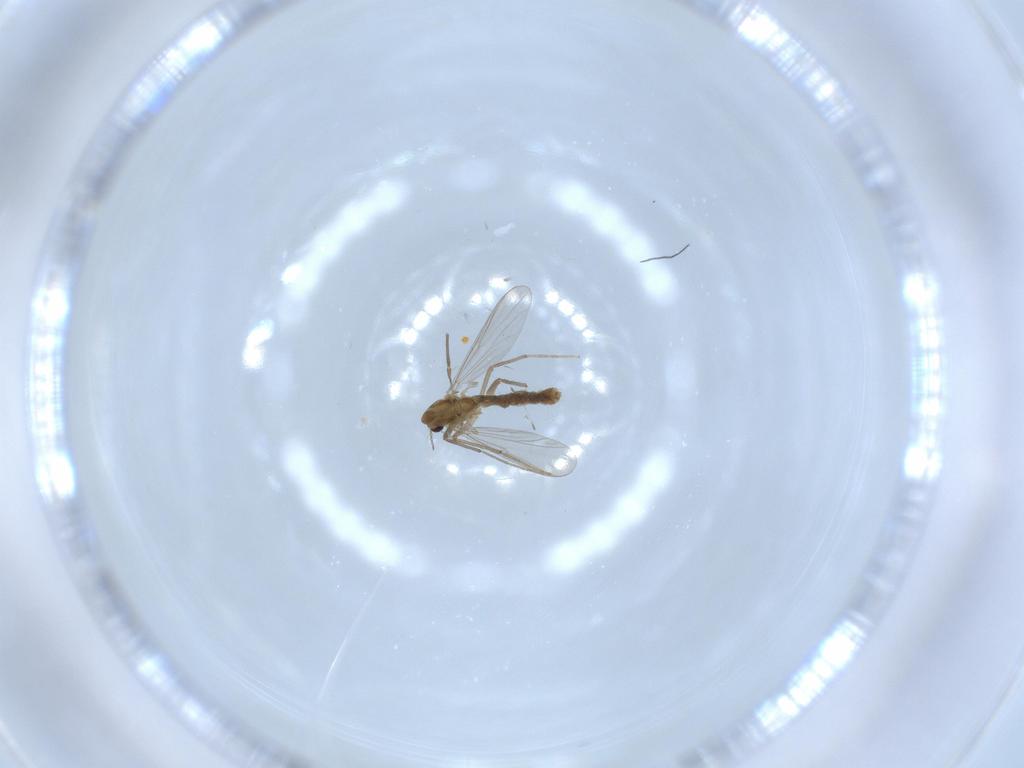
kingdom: Animalia
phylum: Arthropoda
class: Insecta
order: Diptera
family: Chironomidae
